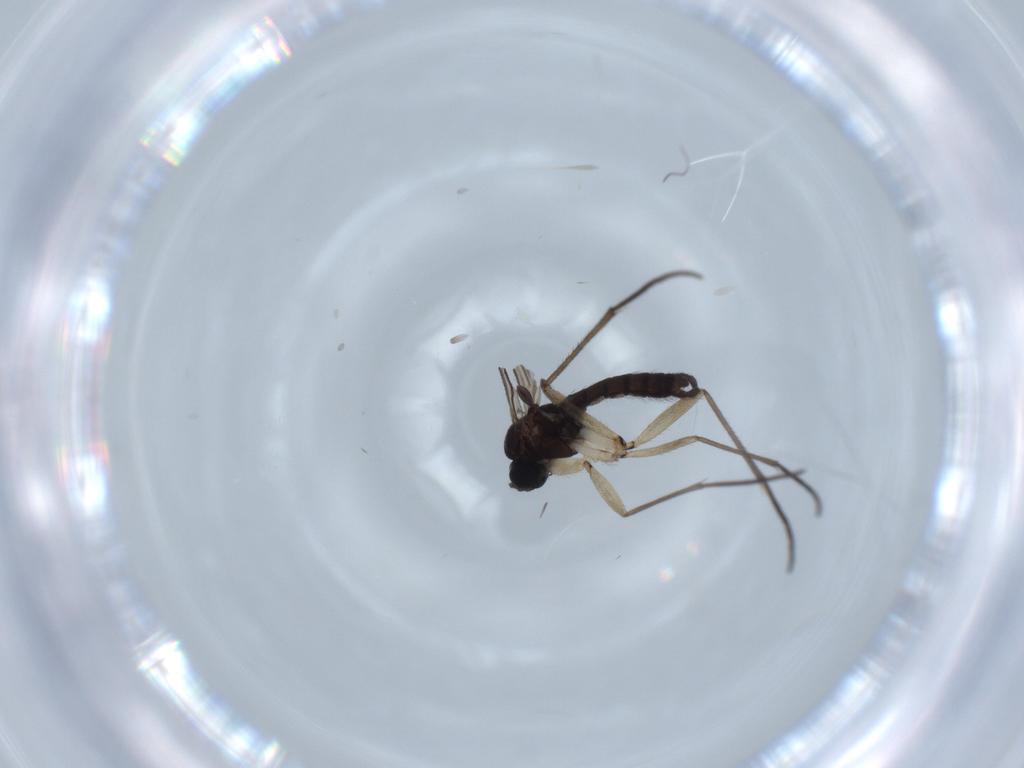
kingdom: Animalia
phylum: Arthropoda
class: Insecta
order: Diptera
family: Sciaridae
